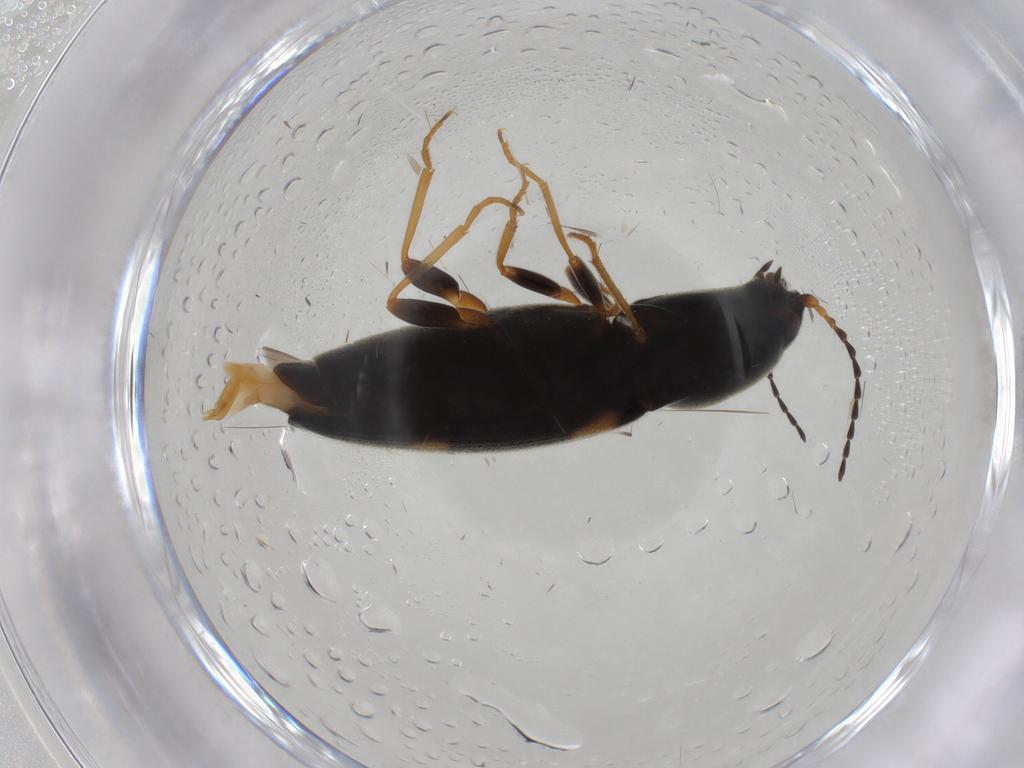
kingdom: Animalia
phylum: Arthropoda
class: Insecta
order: Coleoptera
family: Elateridae
